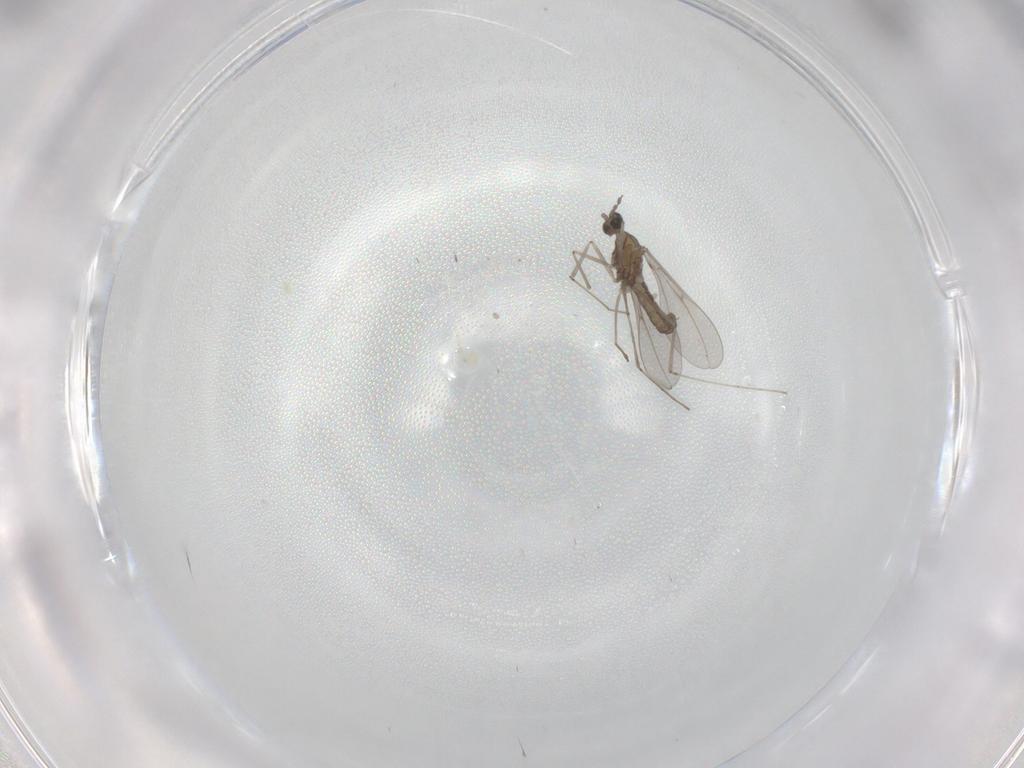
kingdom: Animalia
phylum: Arthropoda
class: Insecta
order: Diptera
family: Cecidomyiidae
